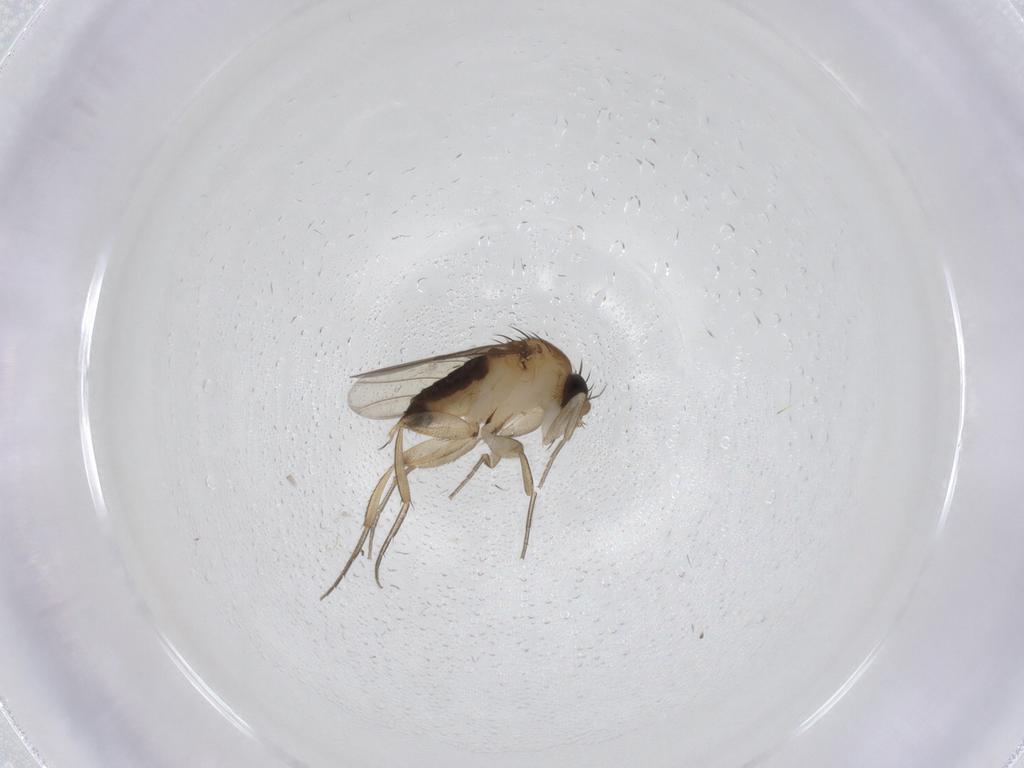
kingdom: Animalia
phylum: Arthropoda
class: Insecta
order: Diptera
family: Phoridae
